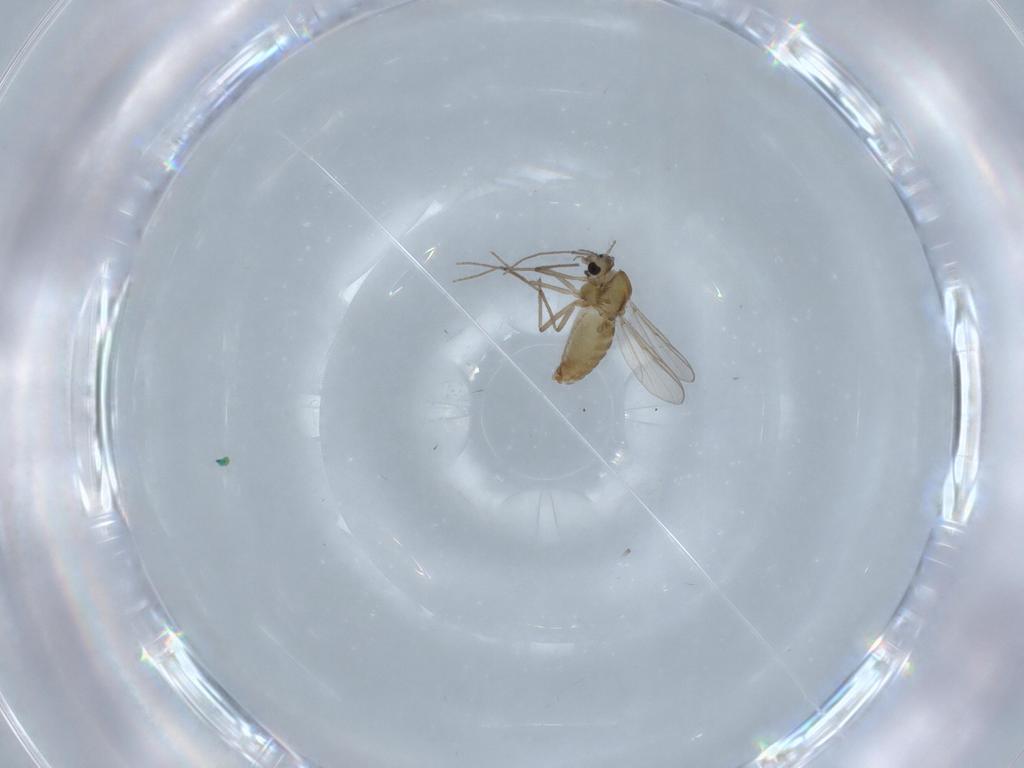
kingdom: Animalia
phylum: Arthropoda
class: Insecta
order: Diptera
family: Chironomidae
